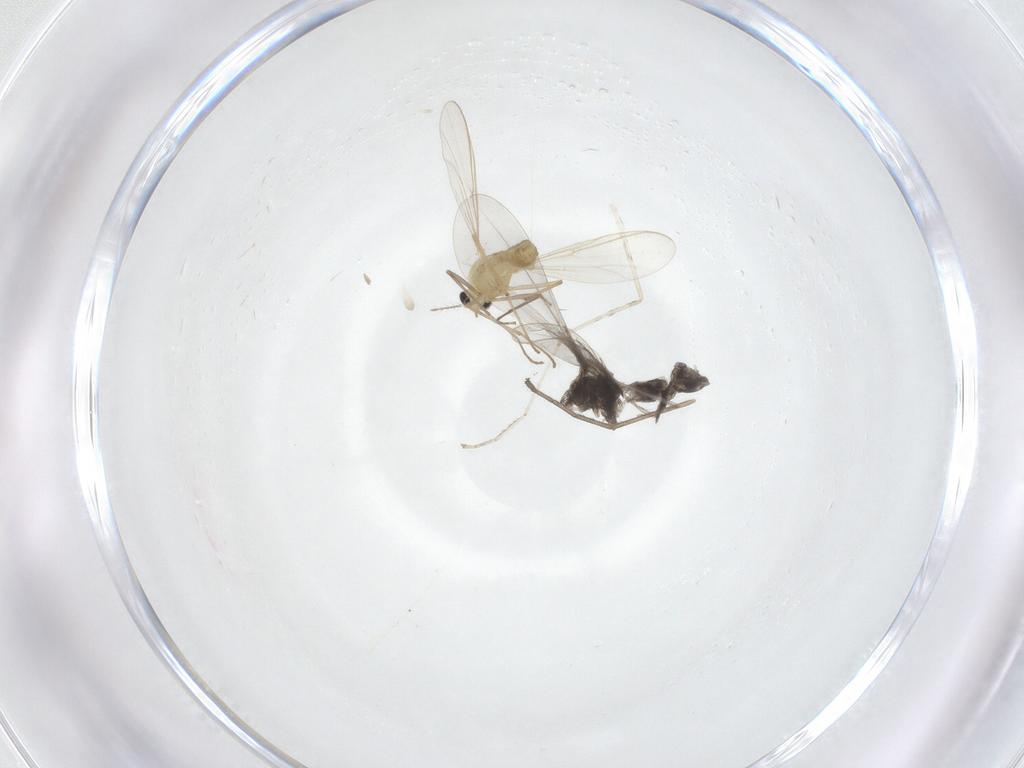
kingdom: Animalia
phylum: Arthropoda
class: Insecta
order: Diptera
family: Cecidomyiidae
